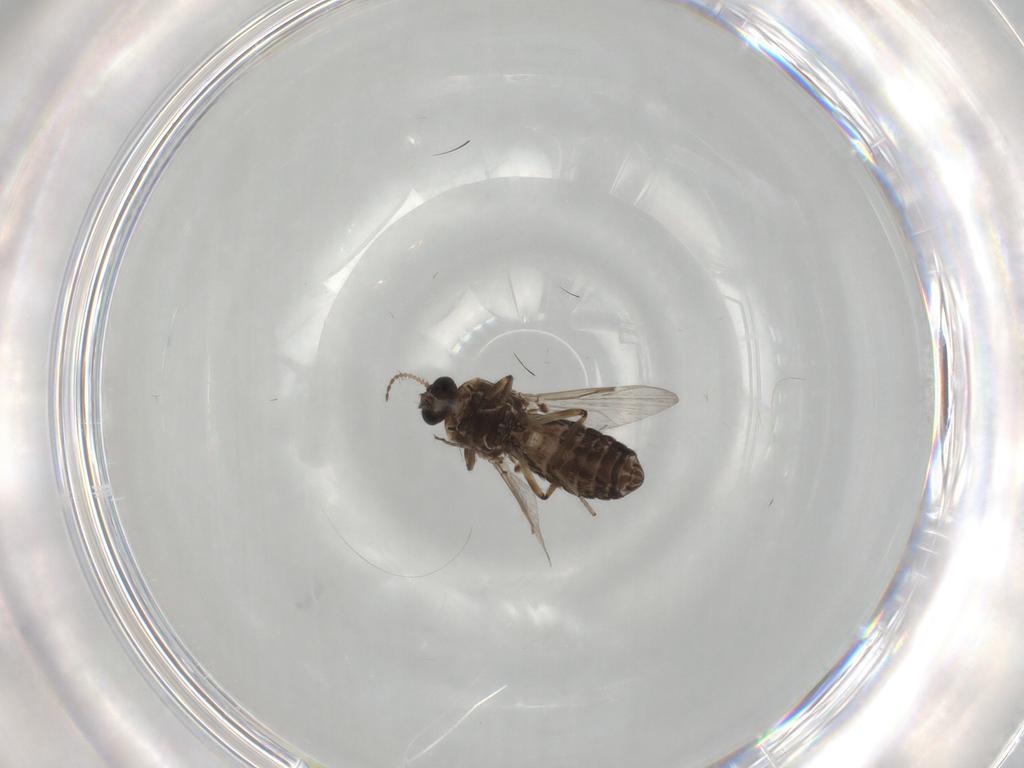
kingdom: Animalia
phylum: Arthropoda
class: Insecta
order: Diptera
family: Ceratopogonidae
